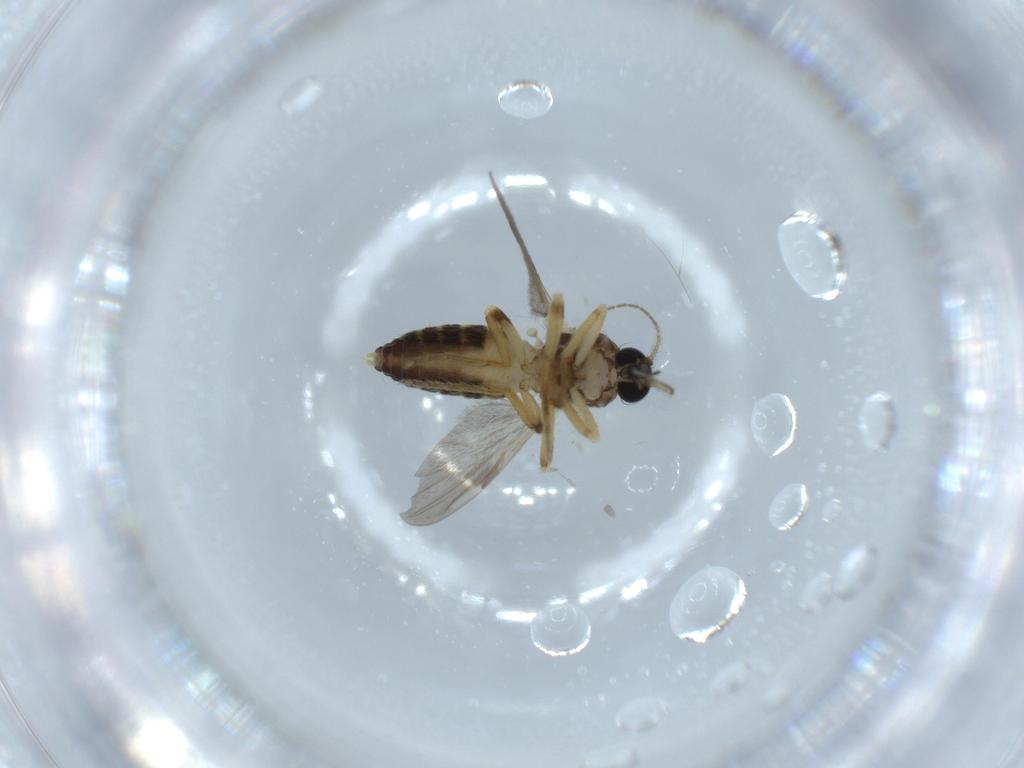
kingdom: Animalia
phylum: Arthropoda
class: Insecta
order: Diptera
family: Ceratopogonidae
